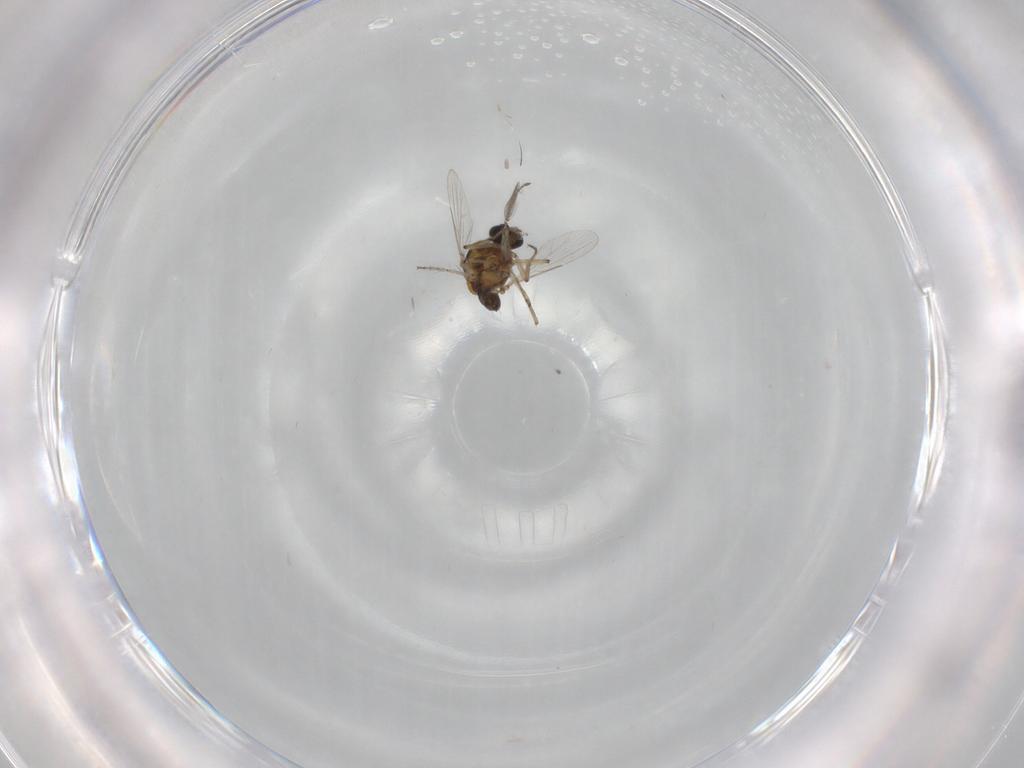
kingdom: Animalia
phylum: Arthropoda
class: Insecta
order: Diptera
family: Ceratopogonidae
